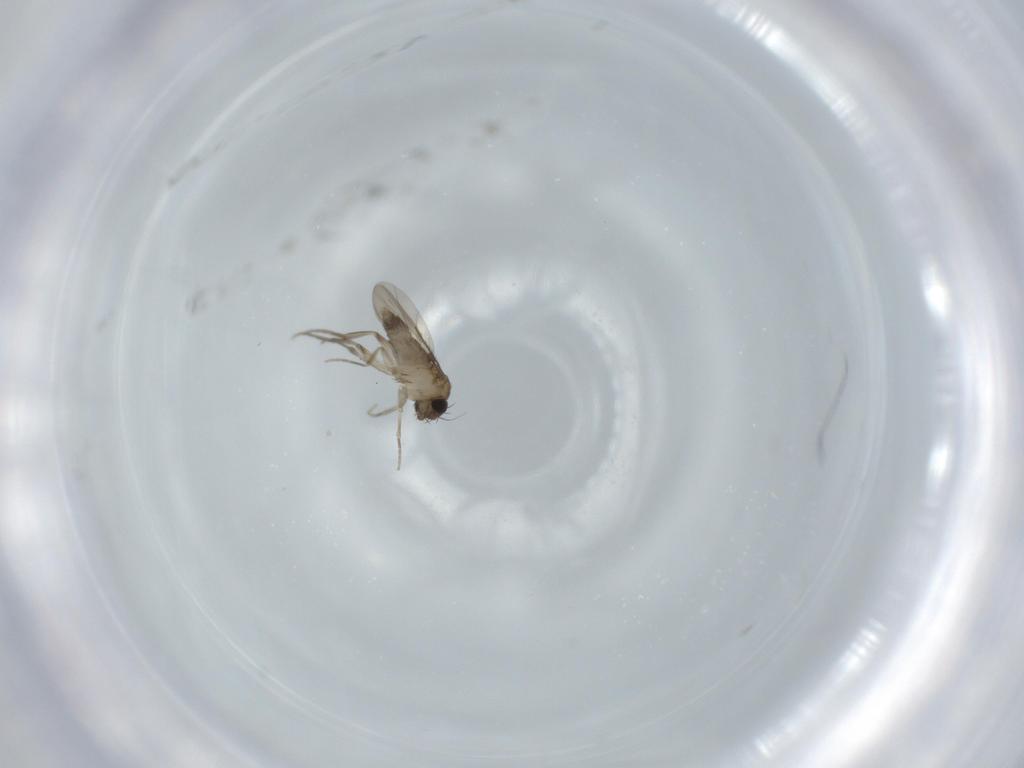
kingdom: Animalia
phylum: Arthropoda
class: Insecta
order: Diptera
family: Phoridae
